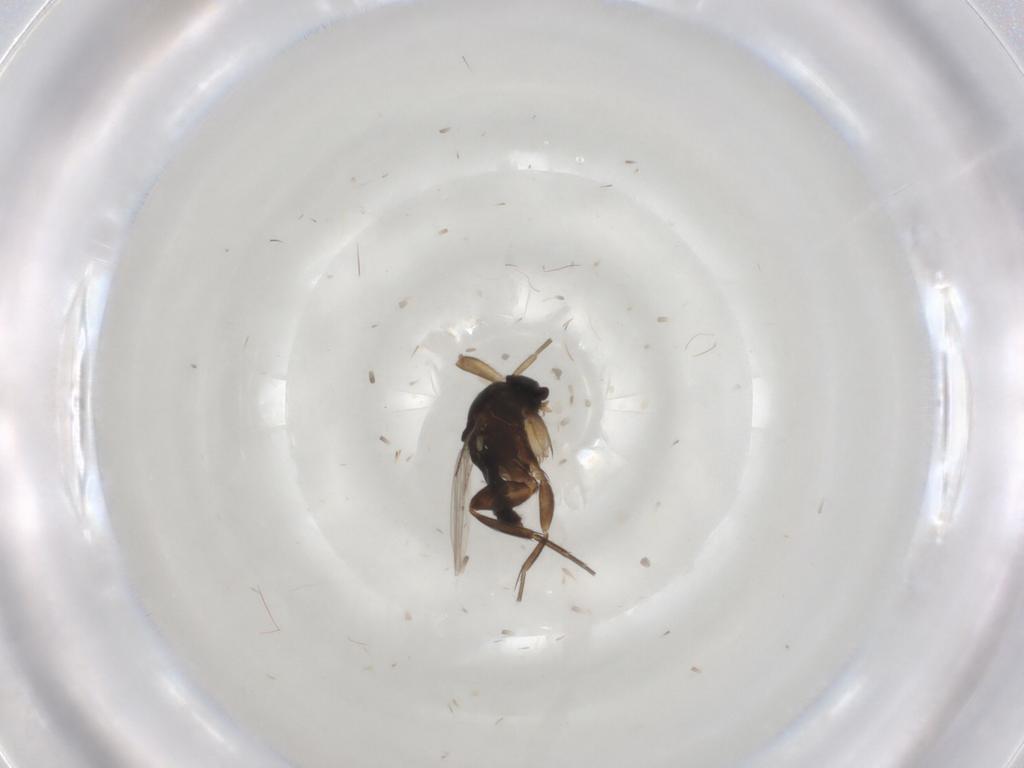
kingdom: Animalia
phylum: Arthropoda
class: Insecta
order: Diptera
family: Phoridae
